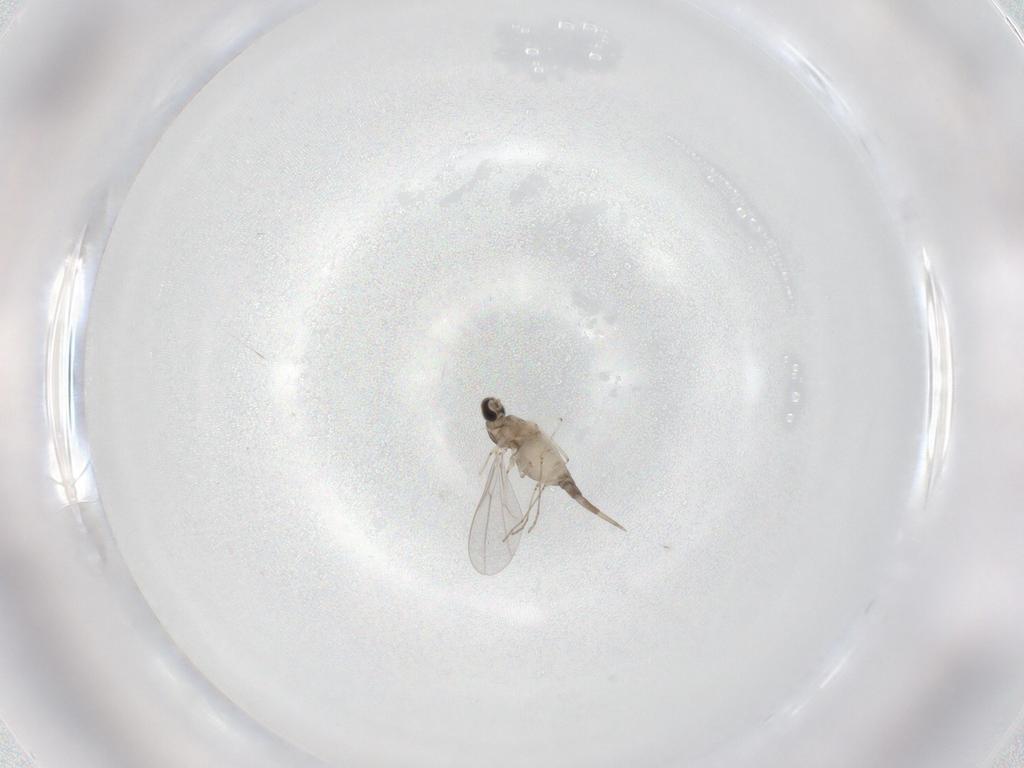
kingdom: Animalia
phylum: Arthropoda
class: Insecta
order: Diptera
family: Cecidomyiidae
